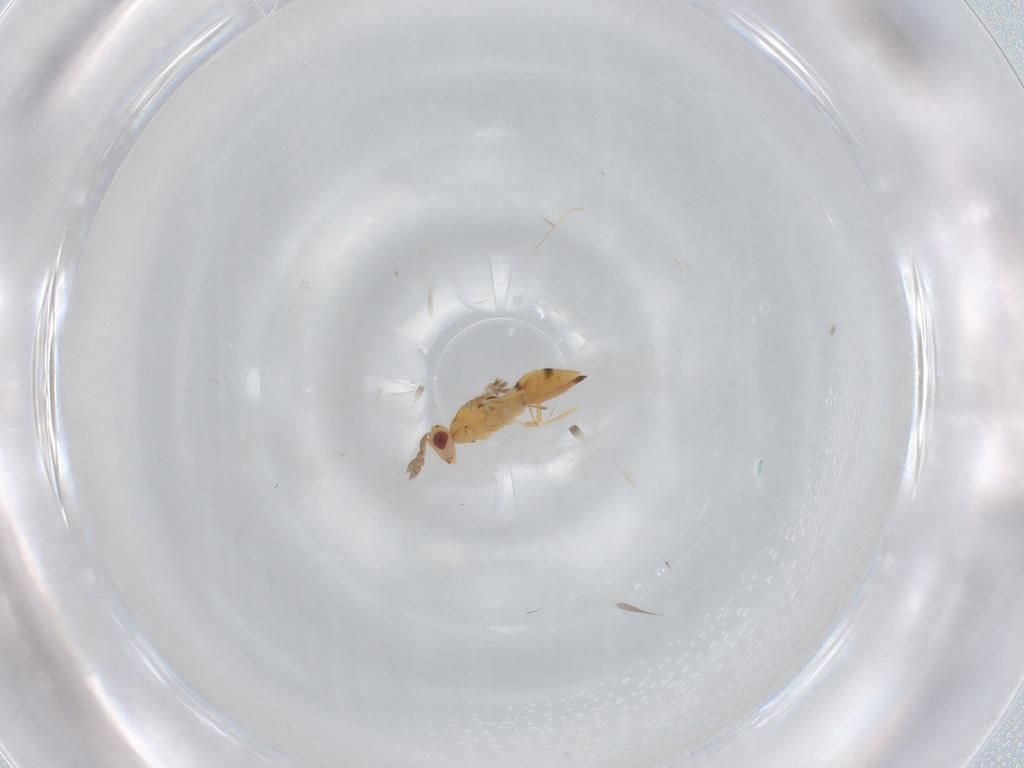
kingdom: Animalia
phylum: Arthropoda
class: Insecta
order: Hymenoptera
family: Eulophidae
